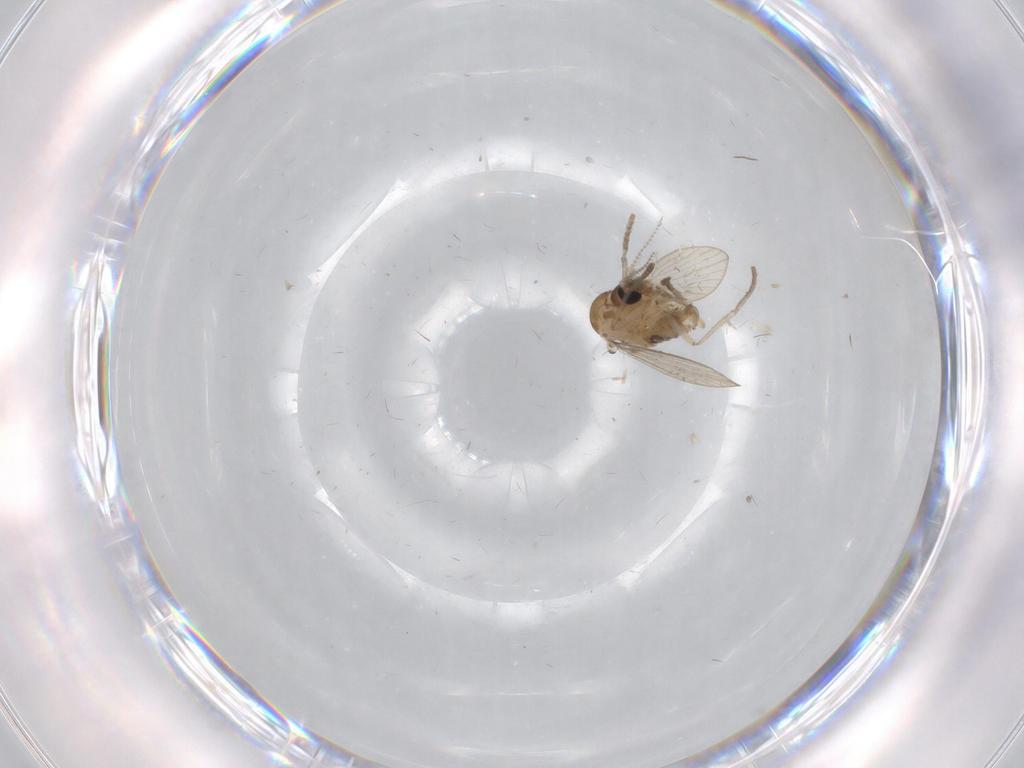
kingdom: Animalia
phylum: Arthropoda
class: Insecta
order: Diptera
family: Psychodidae
